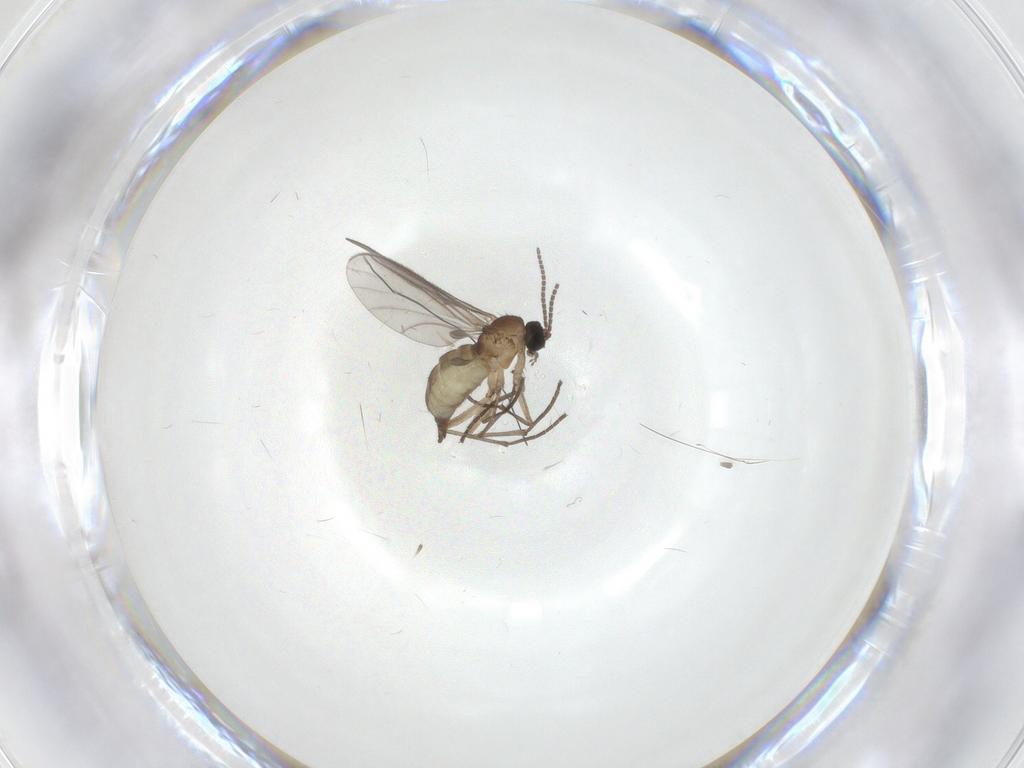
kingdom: Animalia
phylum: Arthropoda
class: Insecta
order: Diptera
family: Sciaridae
